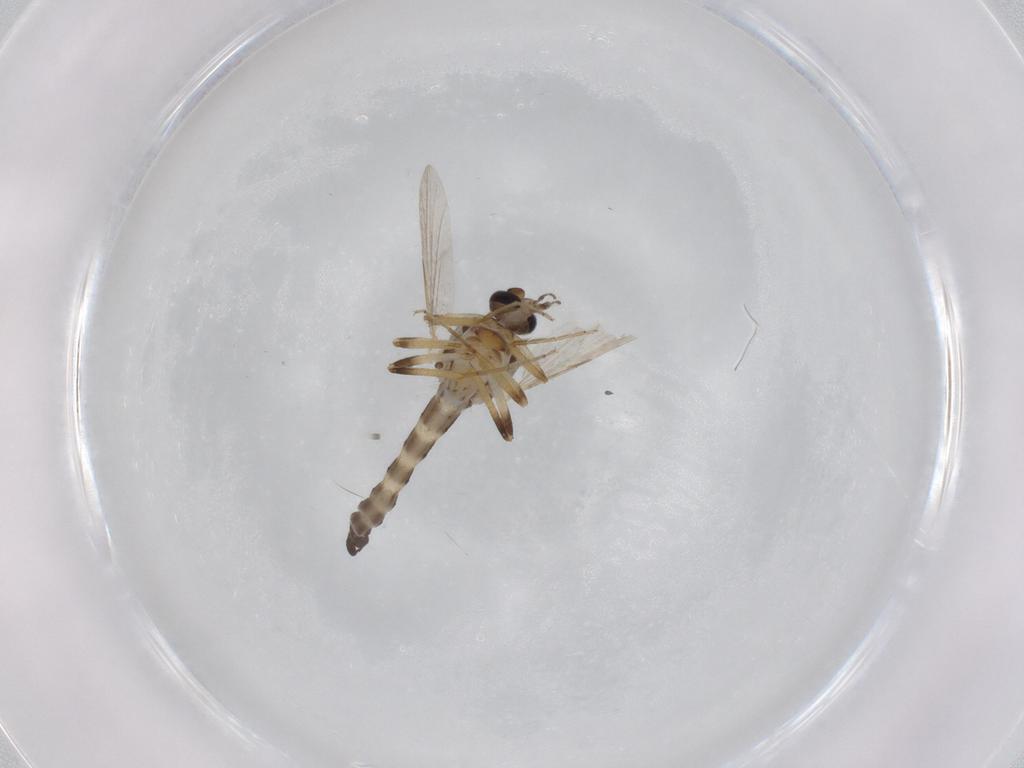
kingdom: Animalia
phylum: Arthropoda
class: Insecta
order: Diptera
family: Ceratopogonidae
